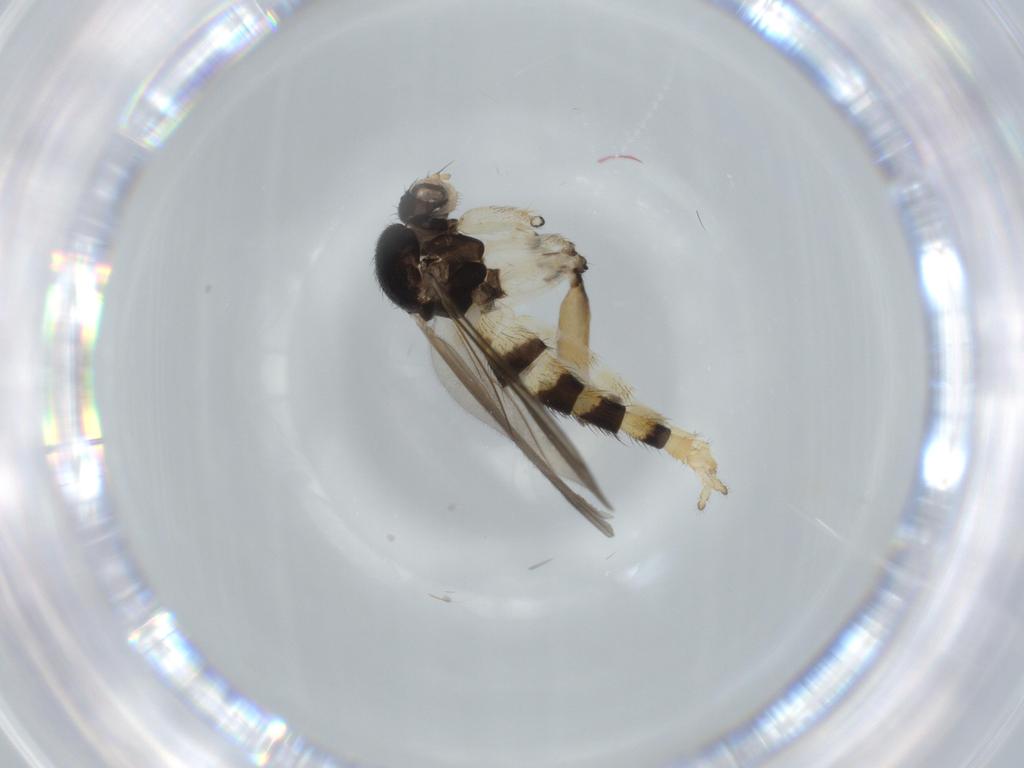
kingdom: Animalia
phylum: Arthropoda
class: Insecta
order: Diptera
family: Mycetophilidae
